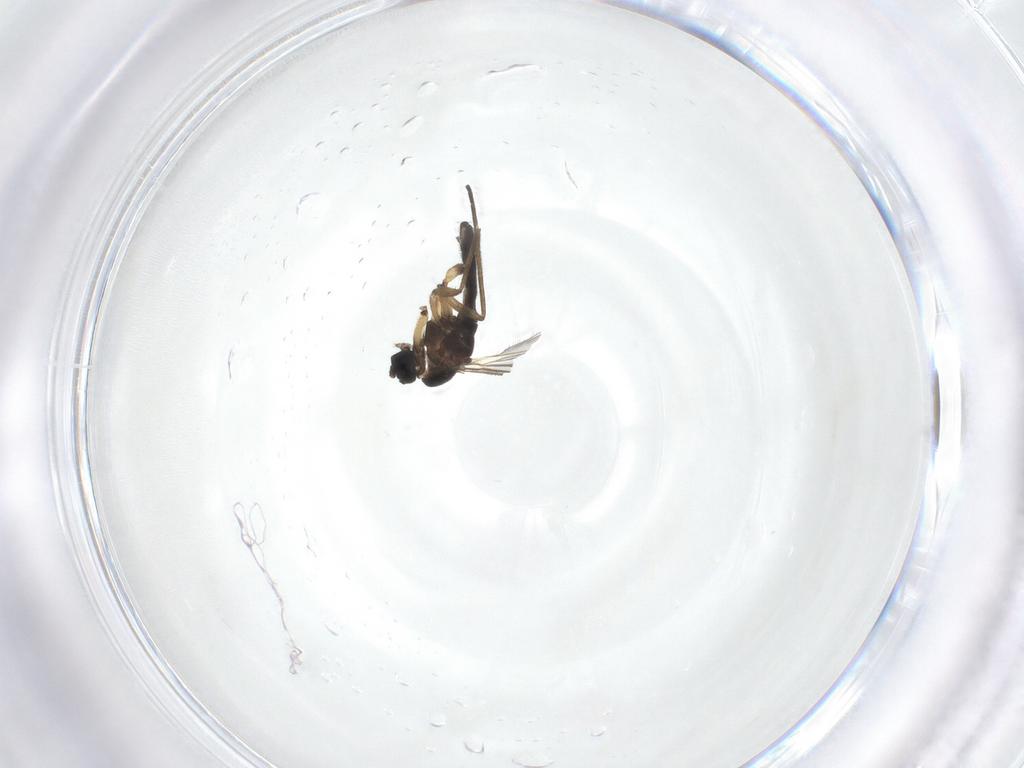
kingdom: Animalia
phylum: Arthropoda
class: Insecta
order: Diptera
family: Sciaridae
